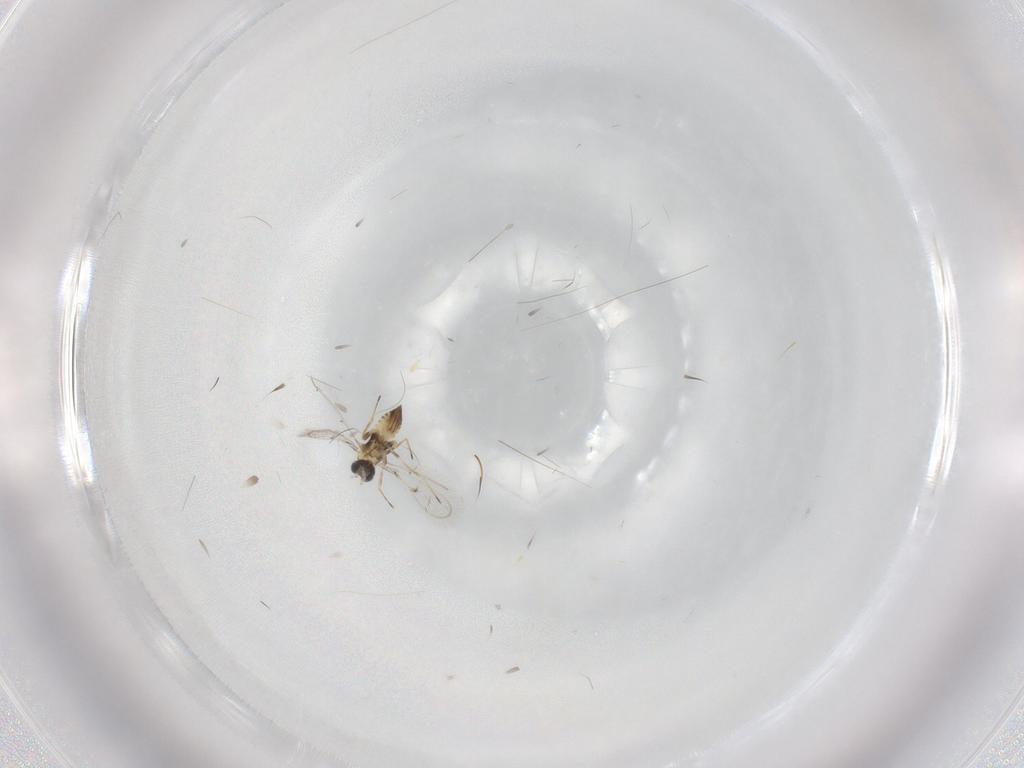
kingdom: Animalia
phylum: Arthropoda
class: Insecta
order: Hymenoptera
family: Trichogrammatidae
